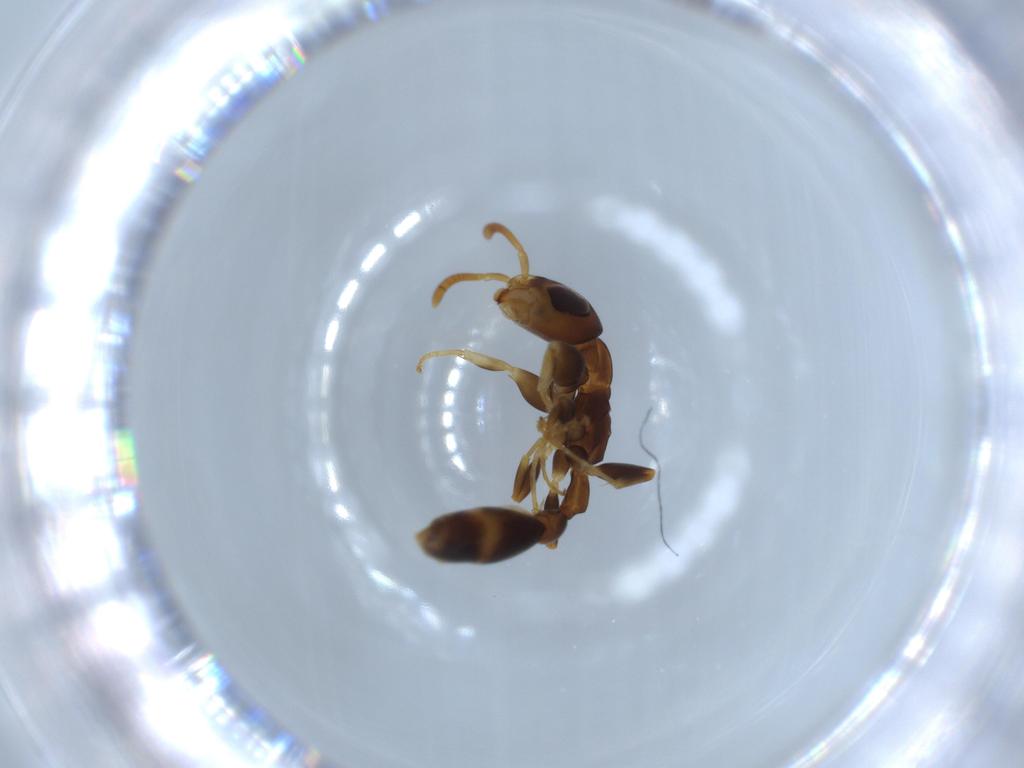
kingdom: Animalia
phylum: Arthropoda
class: Insecta
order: Hymenoptera
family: Formicidae
